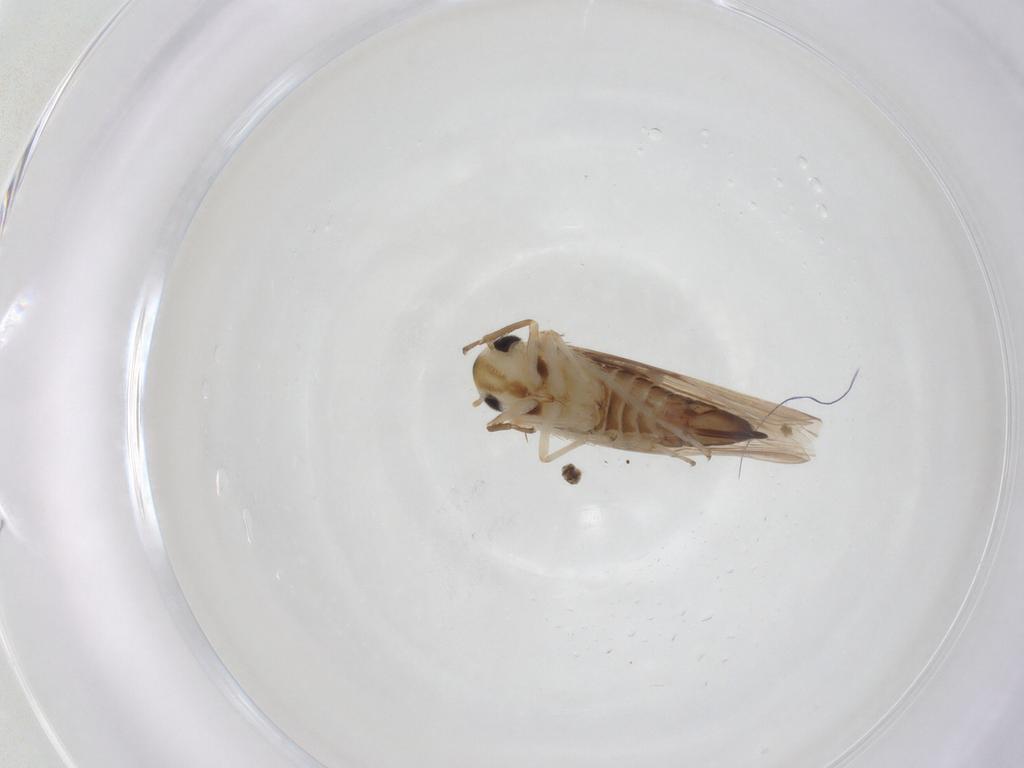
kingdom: Animalia
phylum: Arthropoda
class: Insecta
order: Hemiptera
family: Cicadellidae
